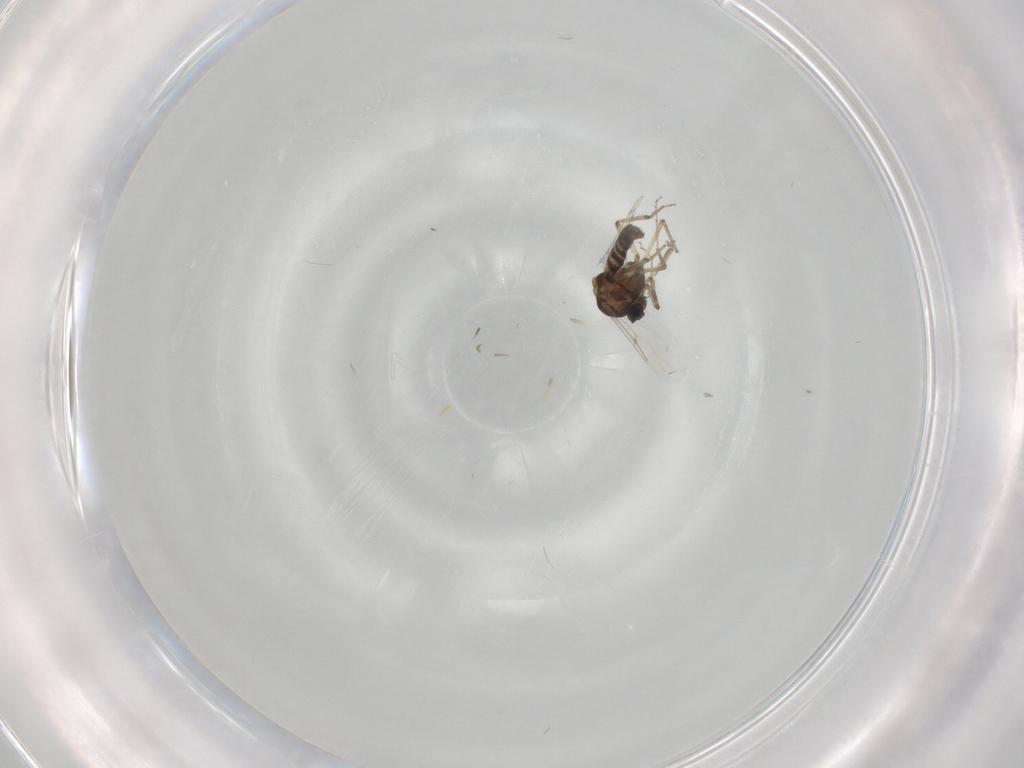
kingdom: Animalia
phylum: Arthropoda
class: Insecta
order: Diptera
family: Ceratopogonidae
